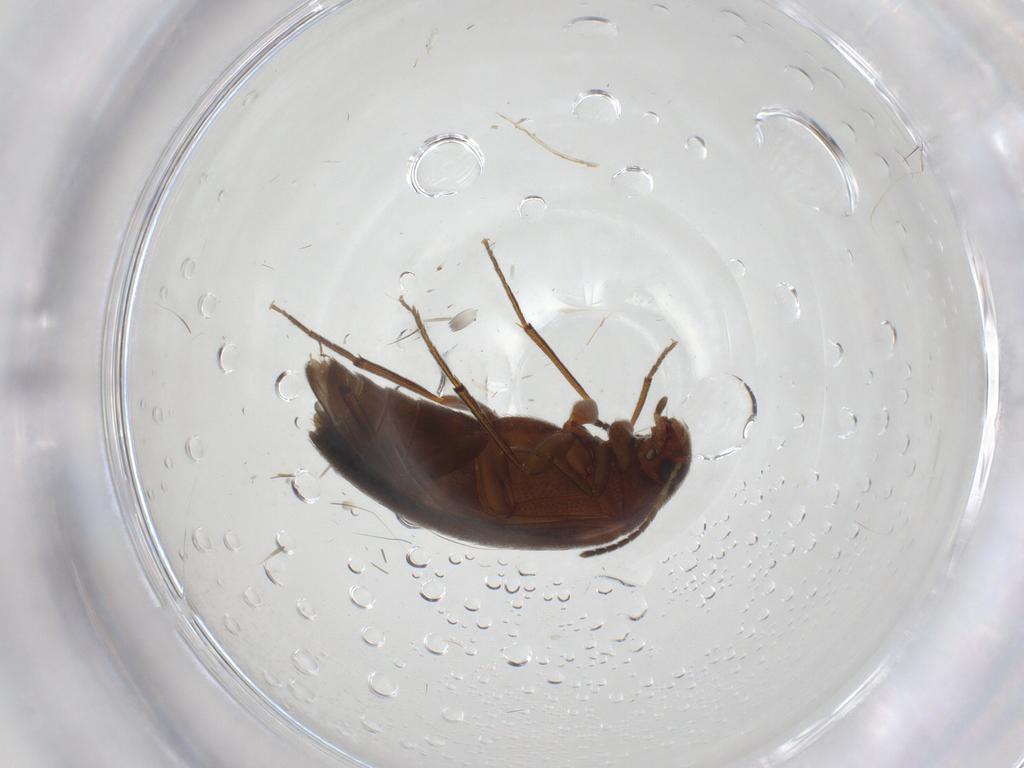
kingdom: Animalia
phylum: Arthropoda
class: Insecta
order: Coleoptera
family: Melandryidae
